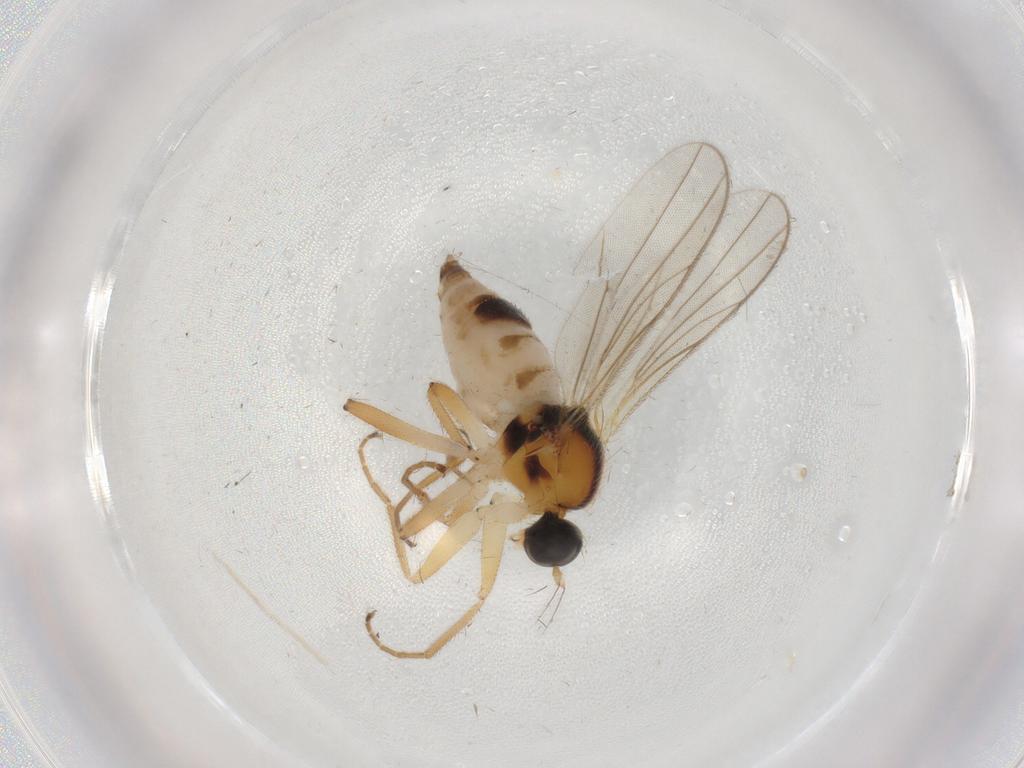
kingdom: Animalia
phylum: Arthropoda
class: Insecta
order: Diptera
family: Hybotidae
